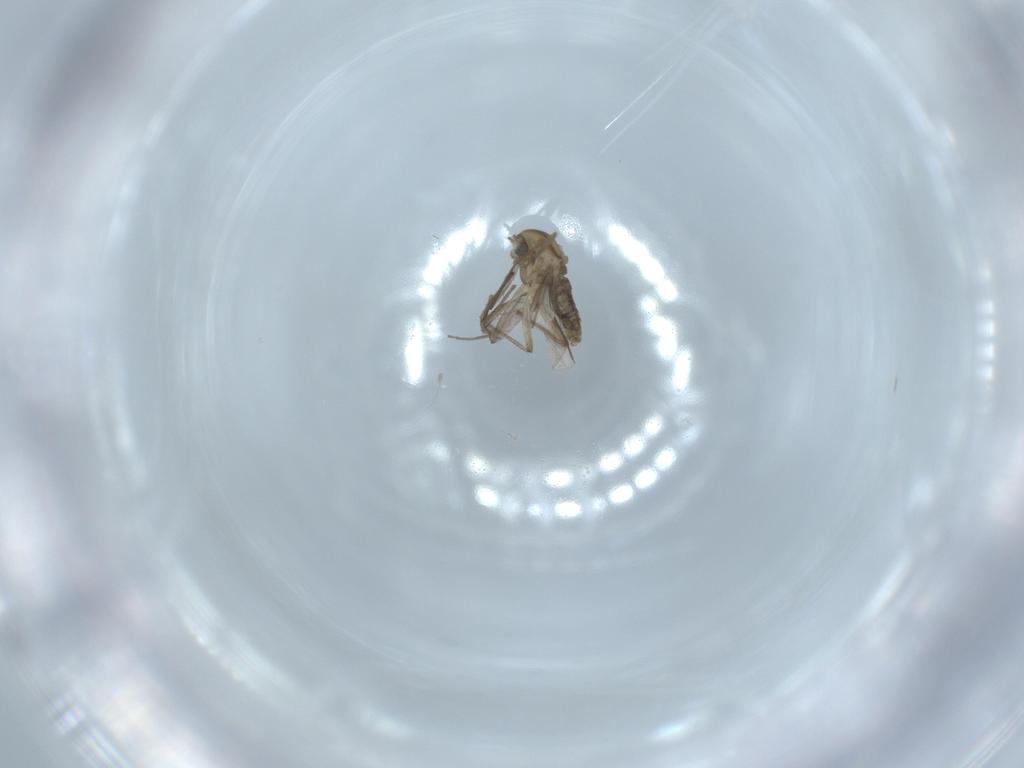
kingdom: Animalia
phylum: Arthropoda
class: Insecta
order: Diptera
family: Chironomidae
